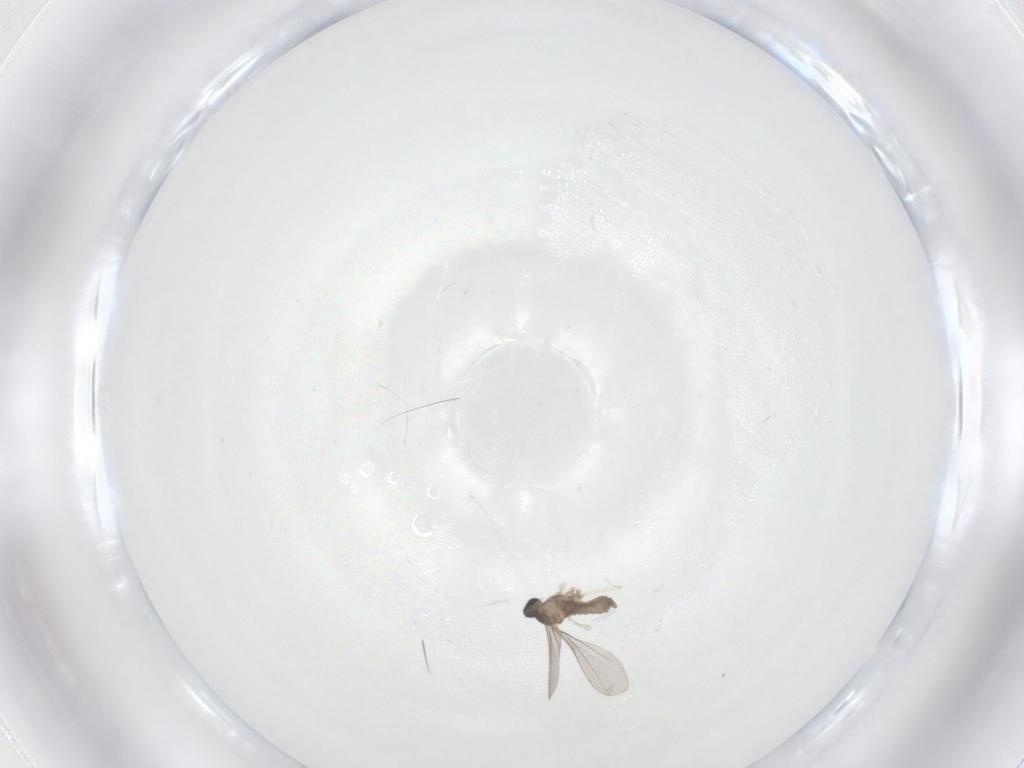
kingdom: Animalia
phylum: Arthropoda
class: Insecta
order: Diptera
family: Cecidomyiidae
